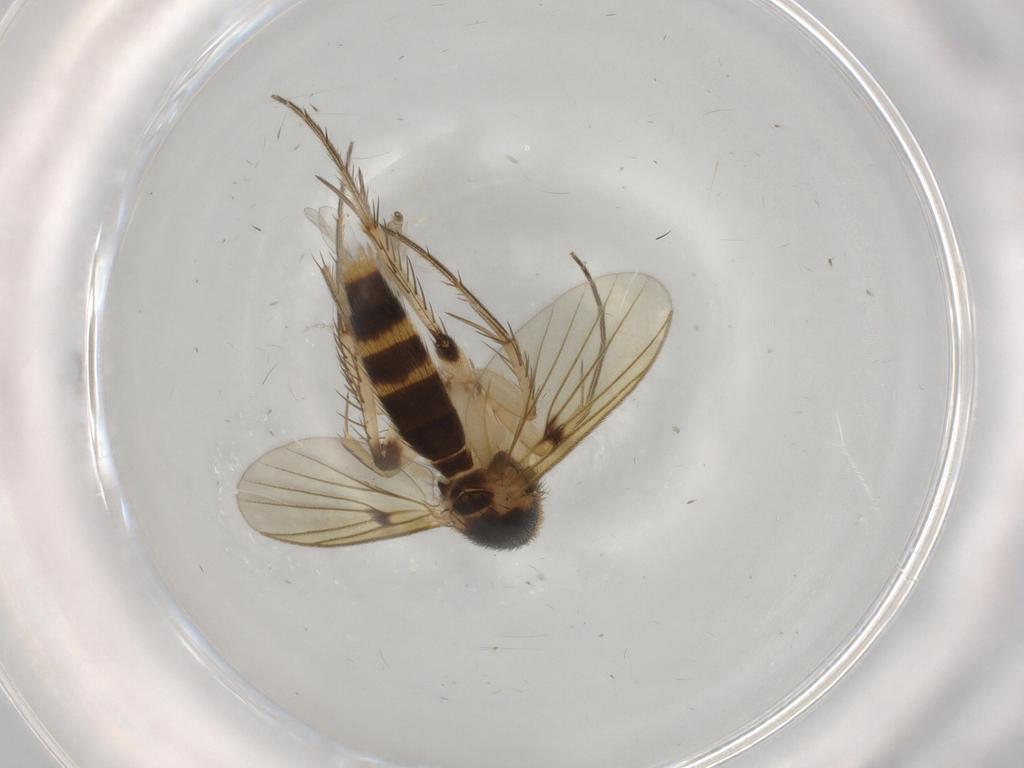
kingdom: Animalia
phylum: Arthropoda
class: Insecta
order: Diptera
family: Cecidomyiidae
